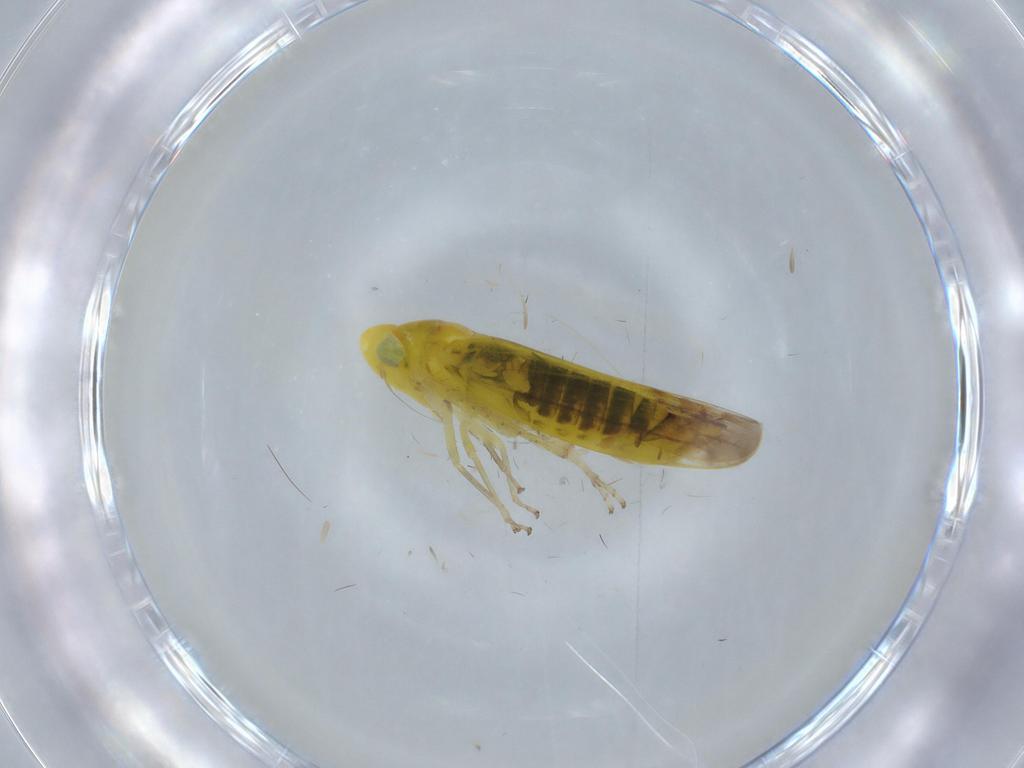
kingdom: Animalia
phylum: Arthropoda
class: Insecta
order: Hemiptera
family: Cicadellidae
